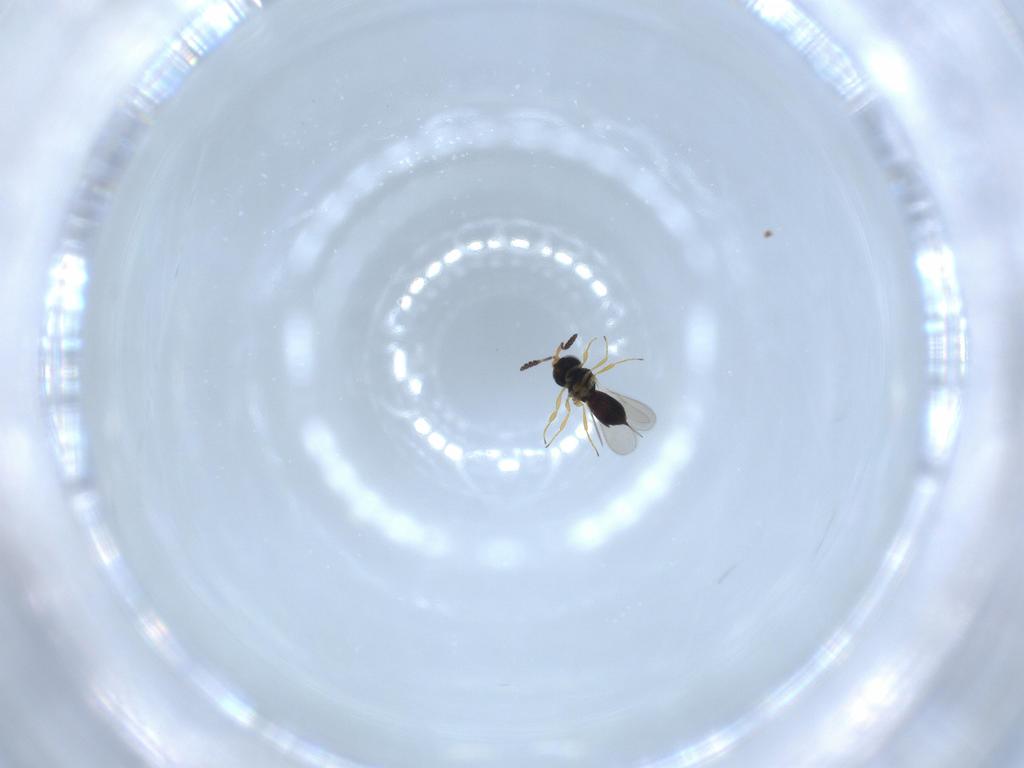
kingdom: Animalia
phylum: Arthropoda
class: Insecta
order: Hymenoptera
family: Scelionidae
